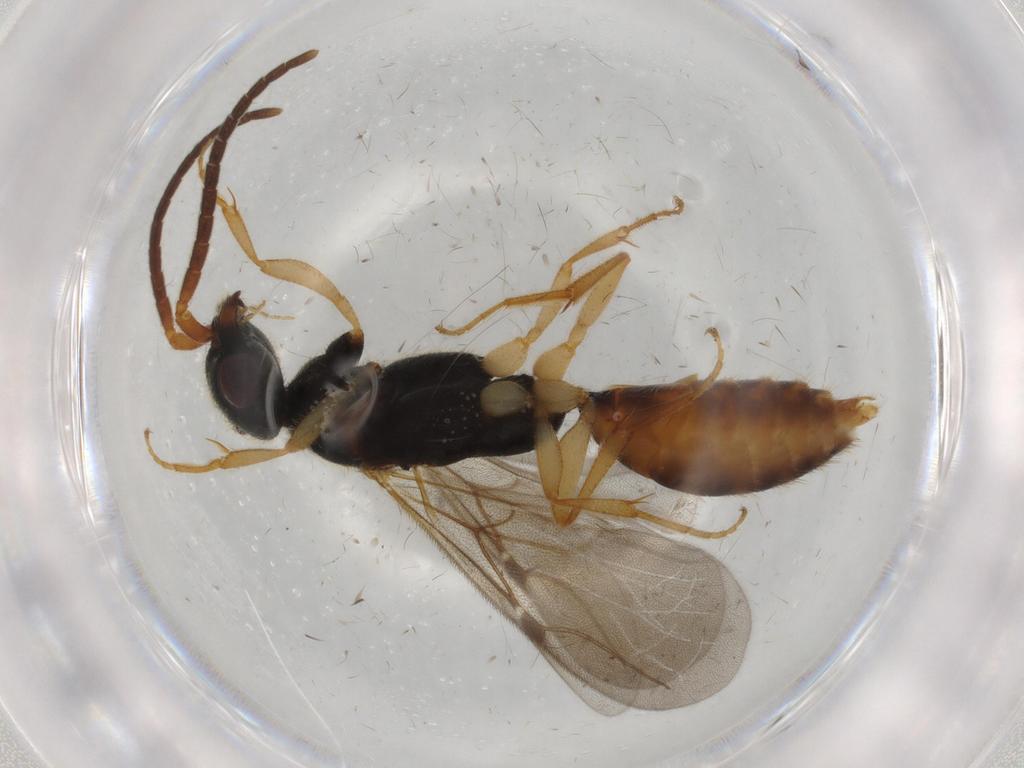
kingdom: Animalia
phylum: Arthropoda
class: Insecta
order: Hymenoptera
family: Bethylidae
